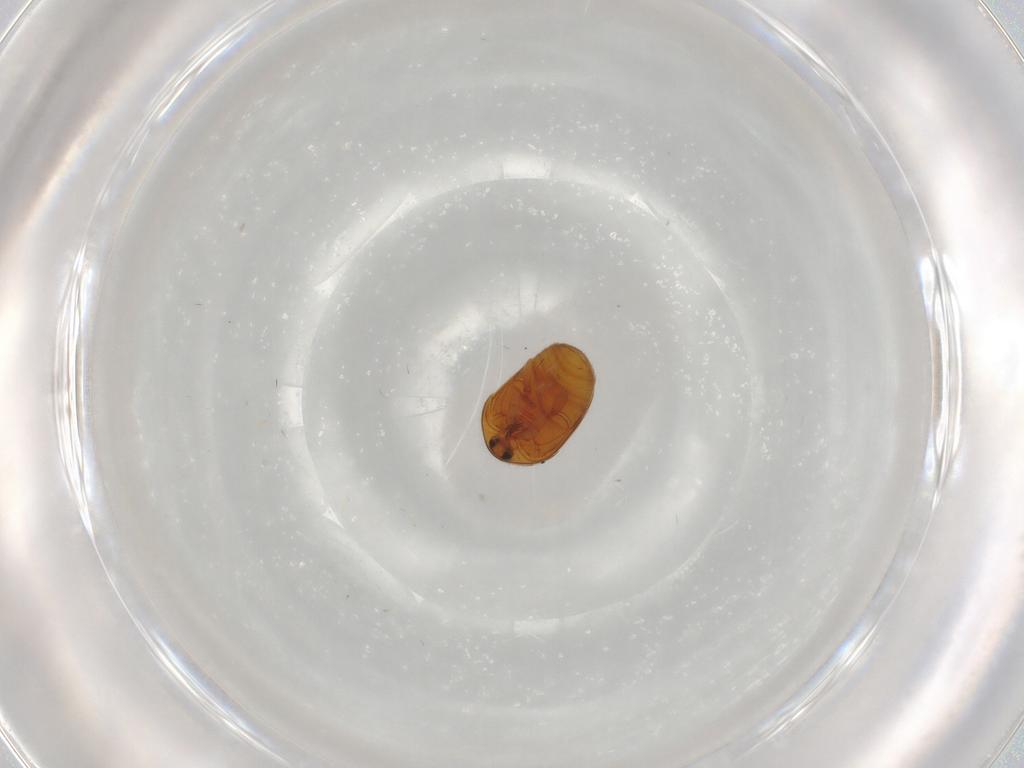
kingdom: Animalia
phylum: Arthropoda
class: Insecta
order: Coleoptera
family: Corylophidae
